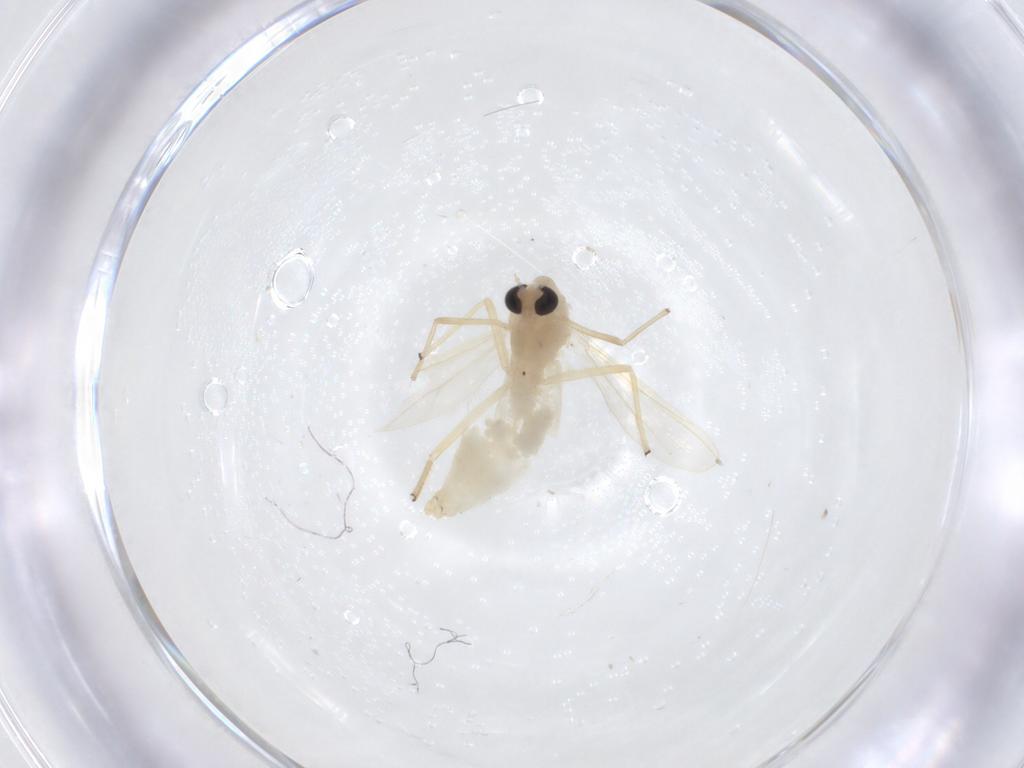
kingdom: Animalia
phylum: Arthropoda
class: Insecta
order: Diptera
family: Chironomidae
